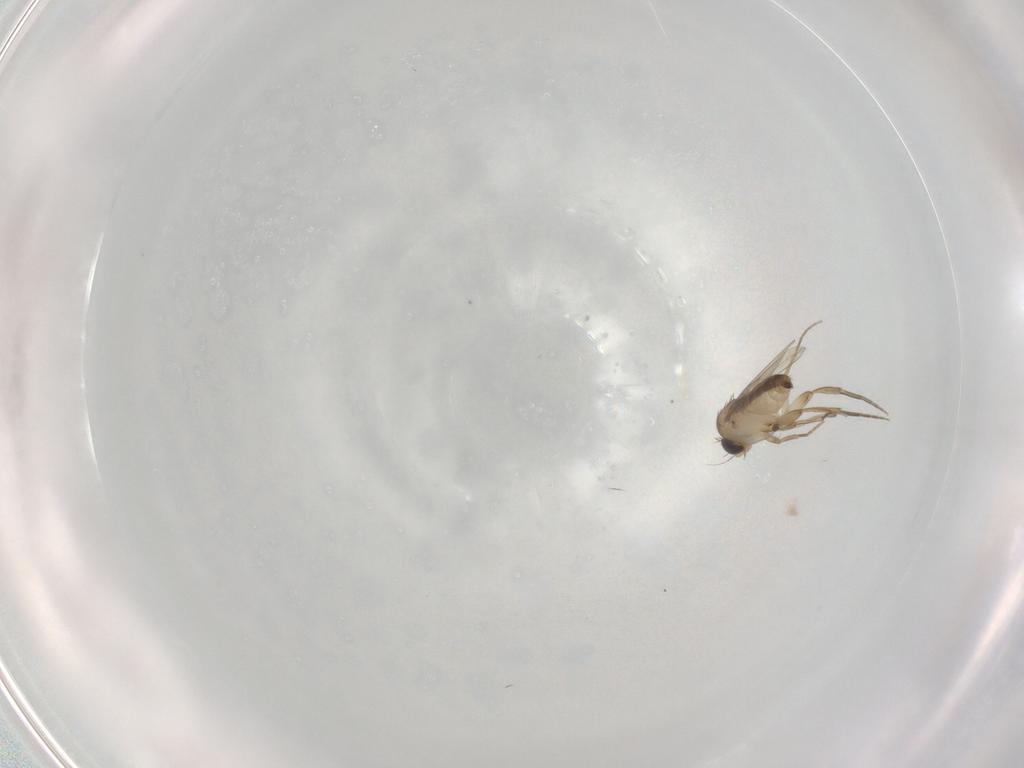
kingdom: Animalia
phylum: Arthropoda
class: Insecta
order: Diptera
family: Phoridae
